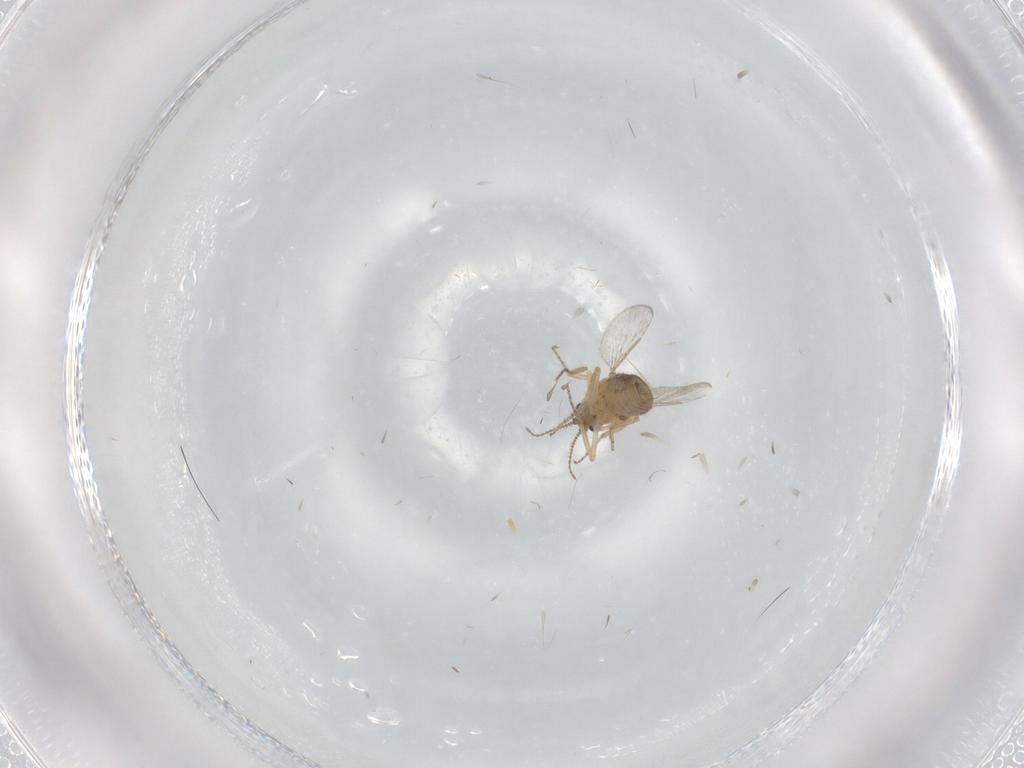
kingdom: Animalia
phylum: Arthropoda
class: Insecta
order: Diptera
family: Ceratopogonidae
